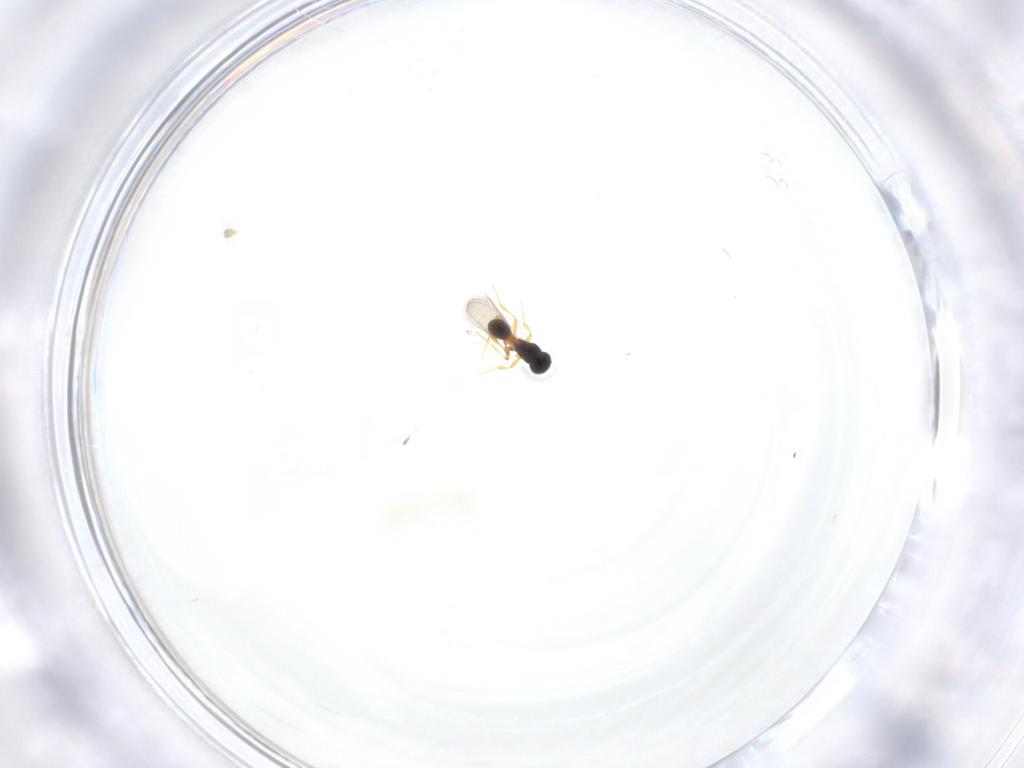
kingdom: Animalia
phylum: Arthropoda
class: Insecta
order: Hymenoptera
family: Platygastridae
